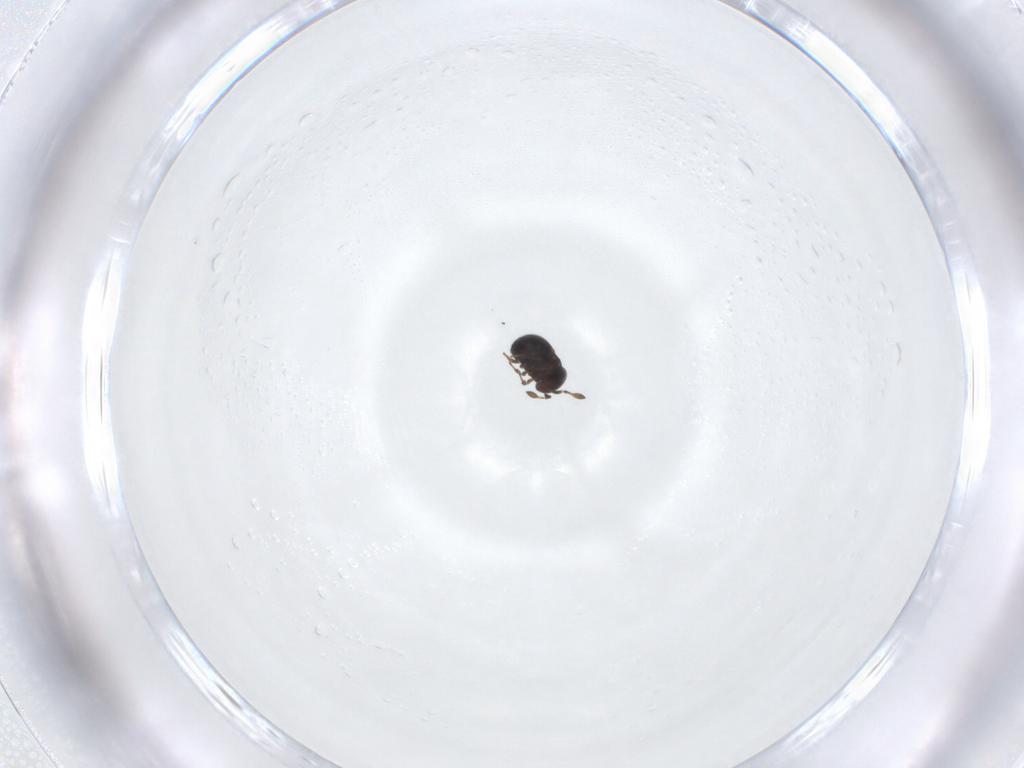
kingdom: Animalia
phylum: Arthropoda
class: Insecta
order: Hymenoptera
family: Scelionidae
